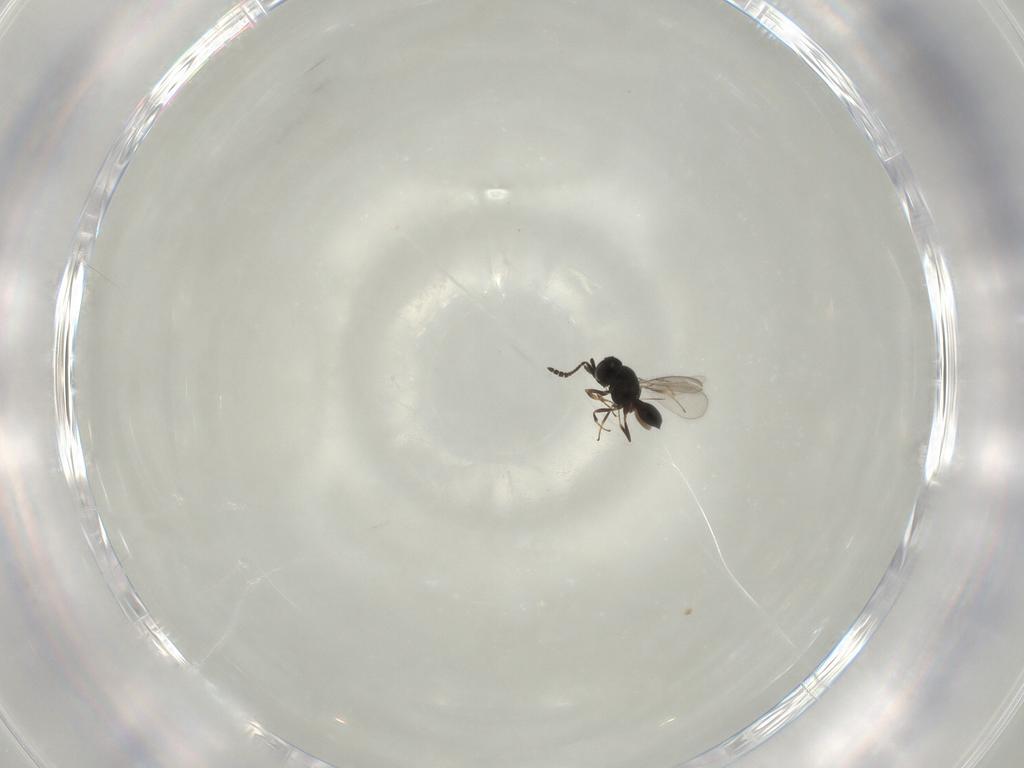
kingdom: Animalia
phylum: Arthropoda
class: Insecta
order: Hymenoptera
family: Scelionidae
